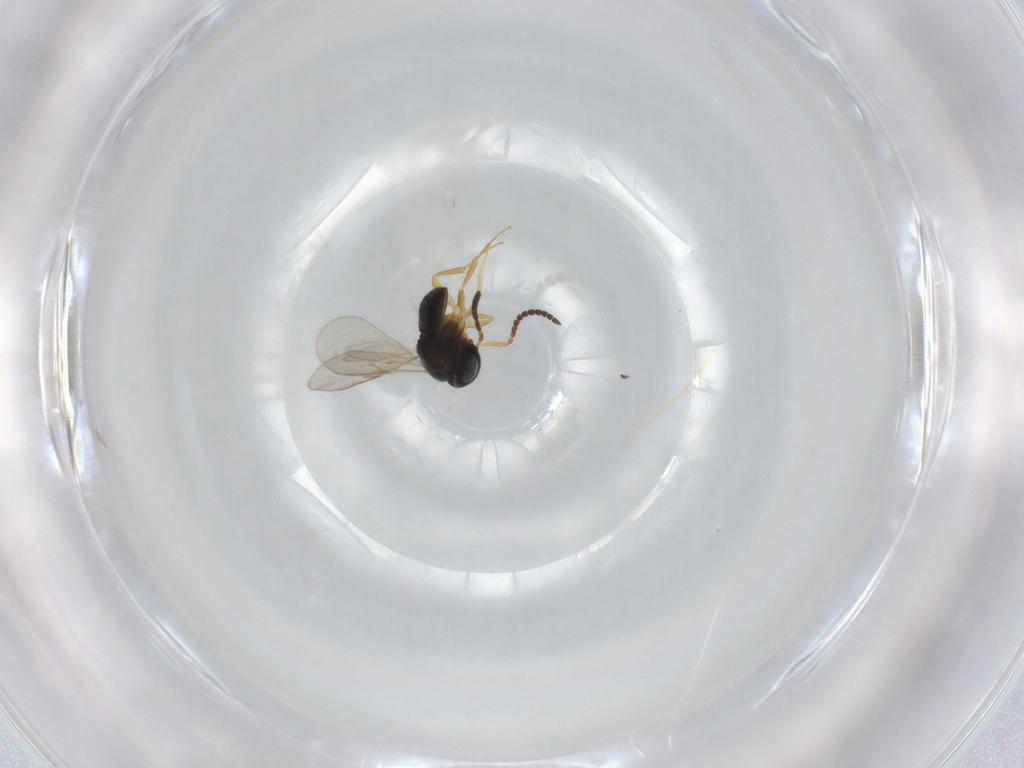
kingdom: Animalia
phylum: Arthropoda
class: Insecta
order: Hymenoptera
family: Scelionidae
